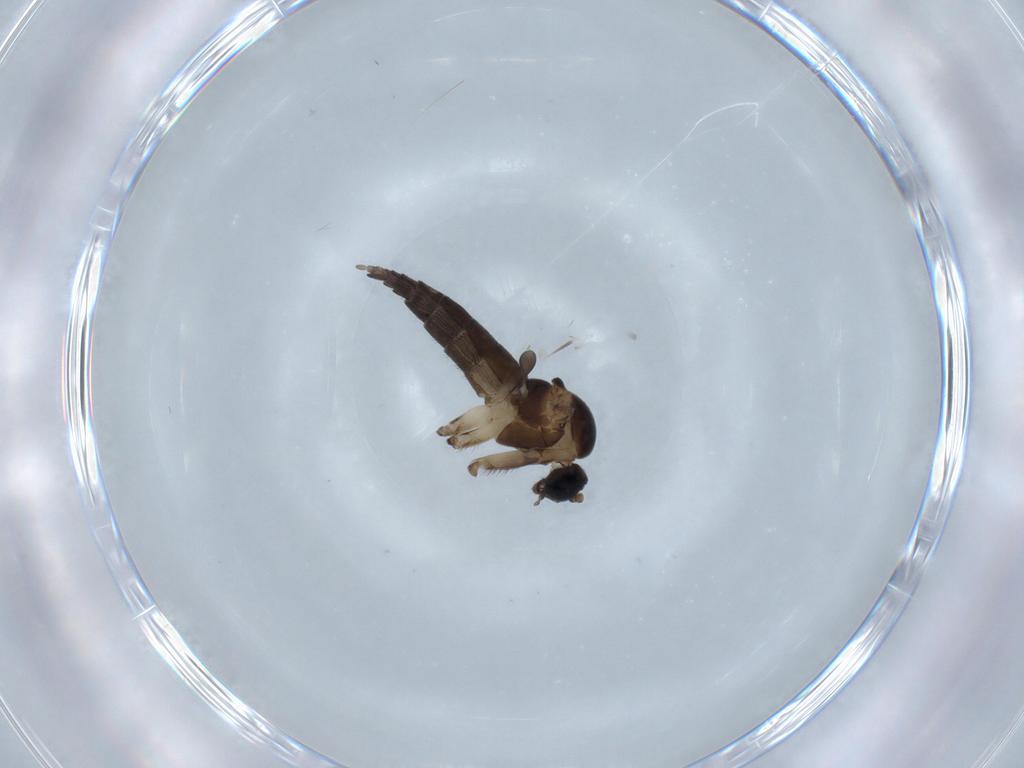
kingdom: Animalia
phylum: Arthropoda
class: Insecta
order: Diptera
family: Sciaridae
